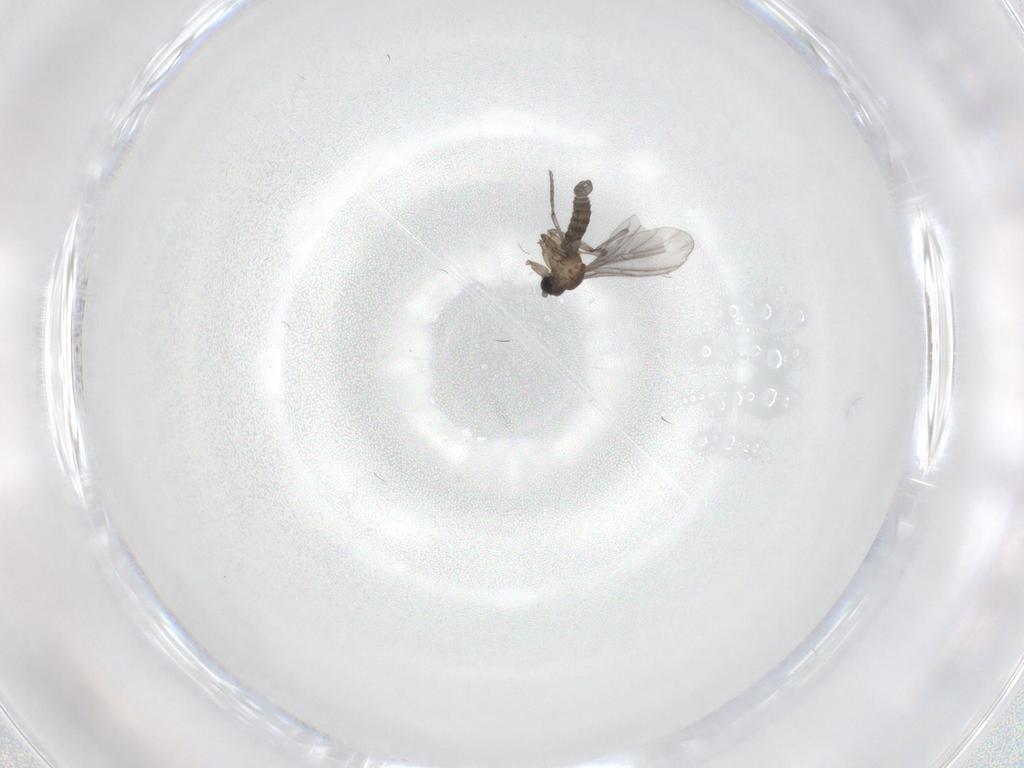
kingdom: Animalia
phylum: Arthropoda
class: Insecta
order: Diptera
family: Sciaridae
